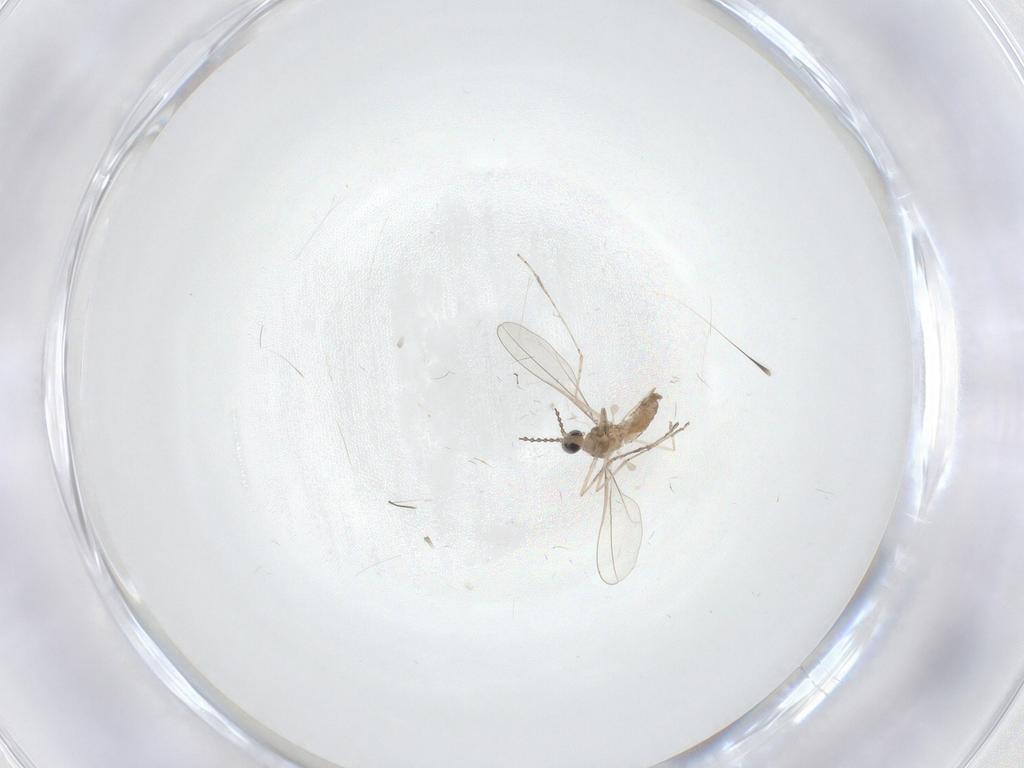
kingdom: Animalia
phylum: Arthropoda
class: Insecta
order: Diptera
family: Cecidomyiidae
